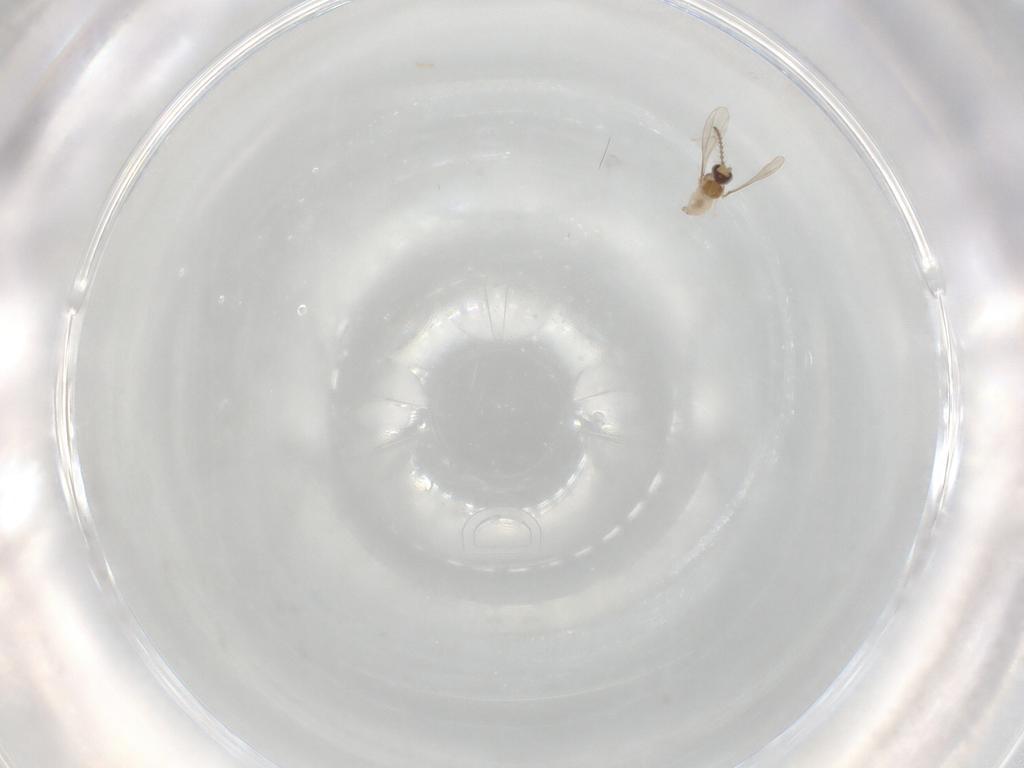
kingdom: Animalia
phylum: Arthropoda
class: Insecta
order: Diptera
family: Cecidomyiidae
